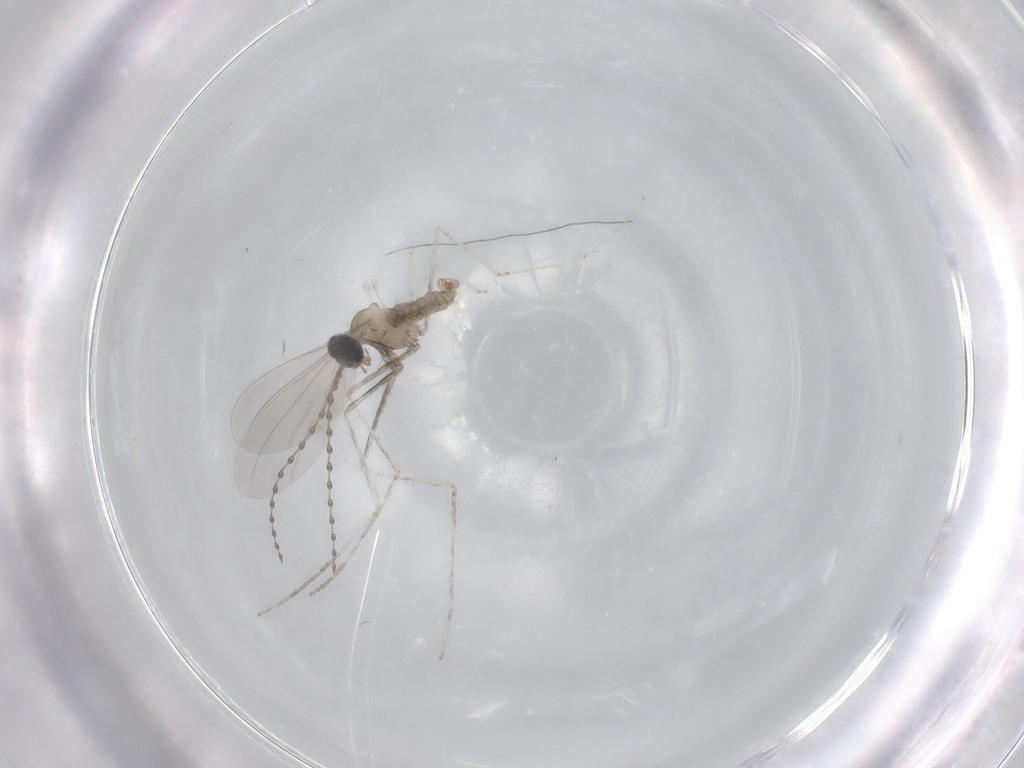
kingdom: Animalia
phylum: Arthropoda
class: Insecta
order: Diptera
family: Cecidomyiidae
